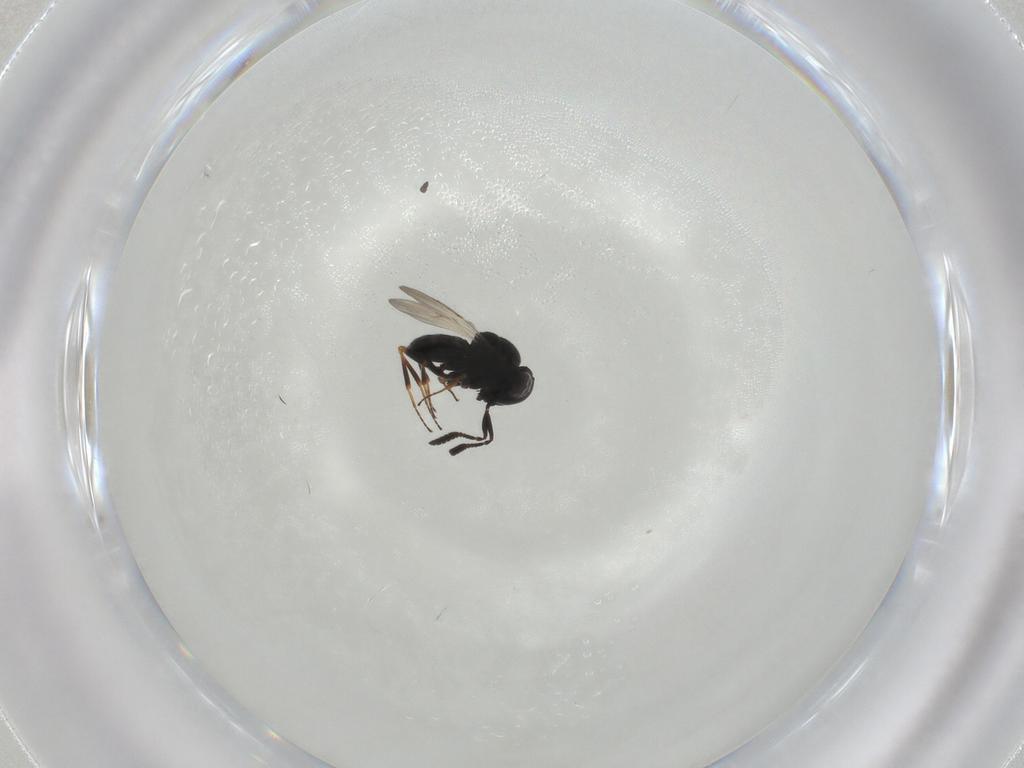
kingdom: Animalia
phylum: Arthropoda
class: Insecta
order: Hymenoptera
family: Scelionidae
